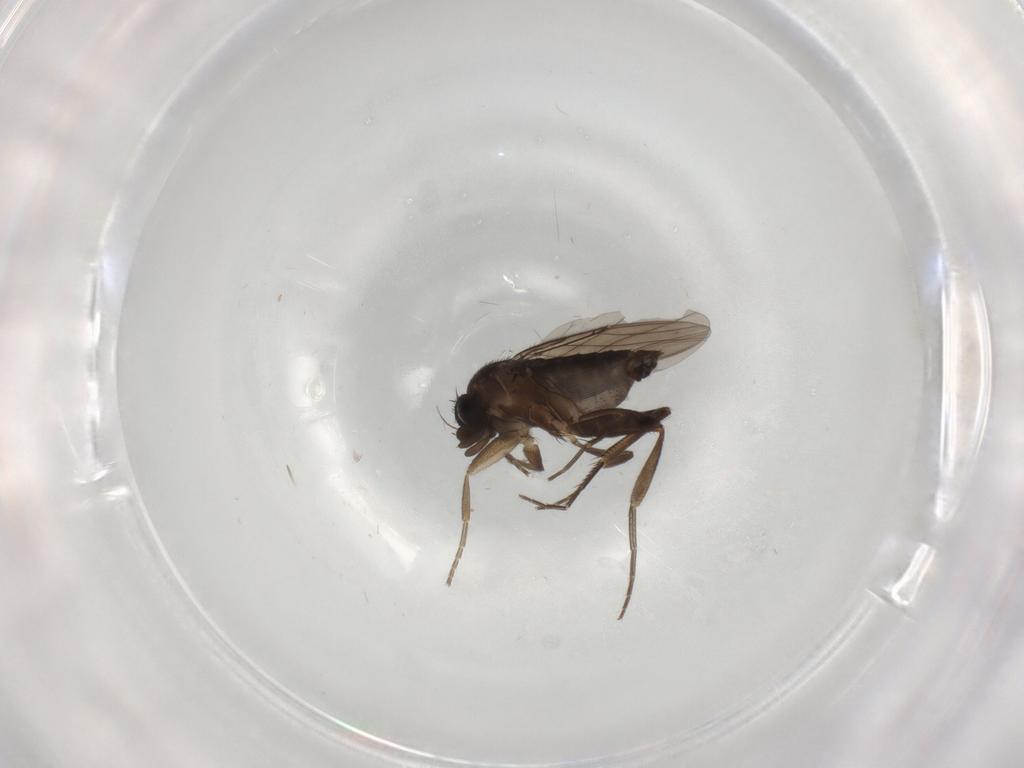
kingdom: Animalia
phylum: Arthropoda
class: Insecta
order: Diptera
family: Phoridae
